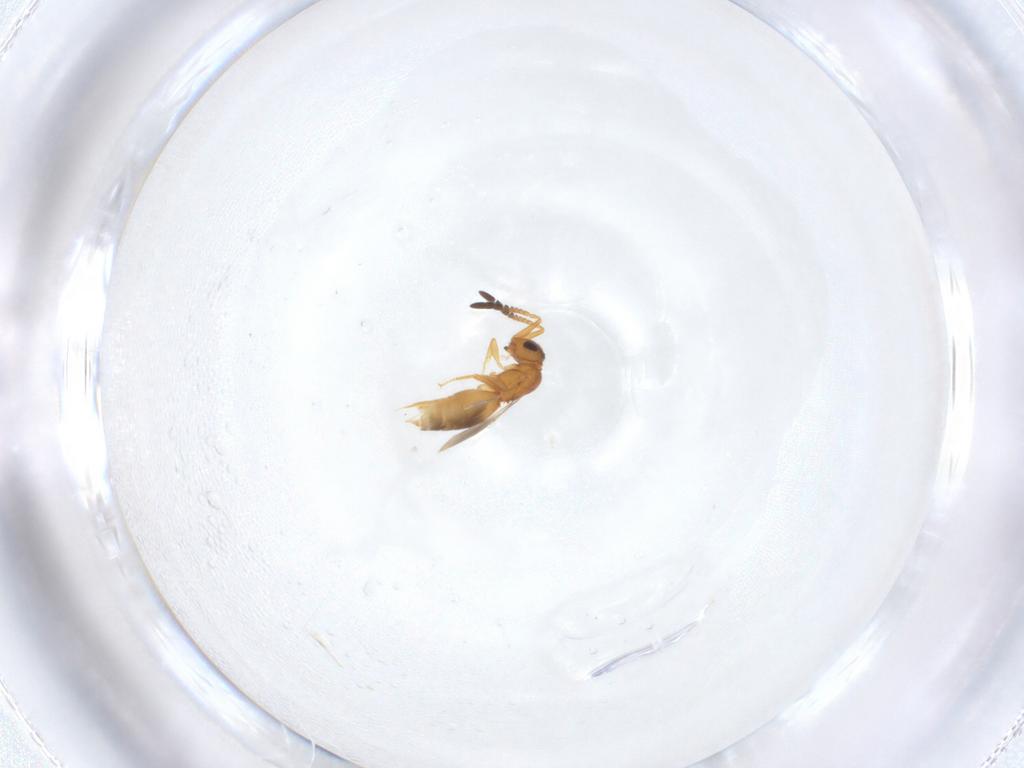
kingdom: Animalia
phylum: Arthropoda
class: Insecta
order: Hymenoptera
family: Ceraphronidae
